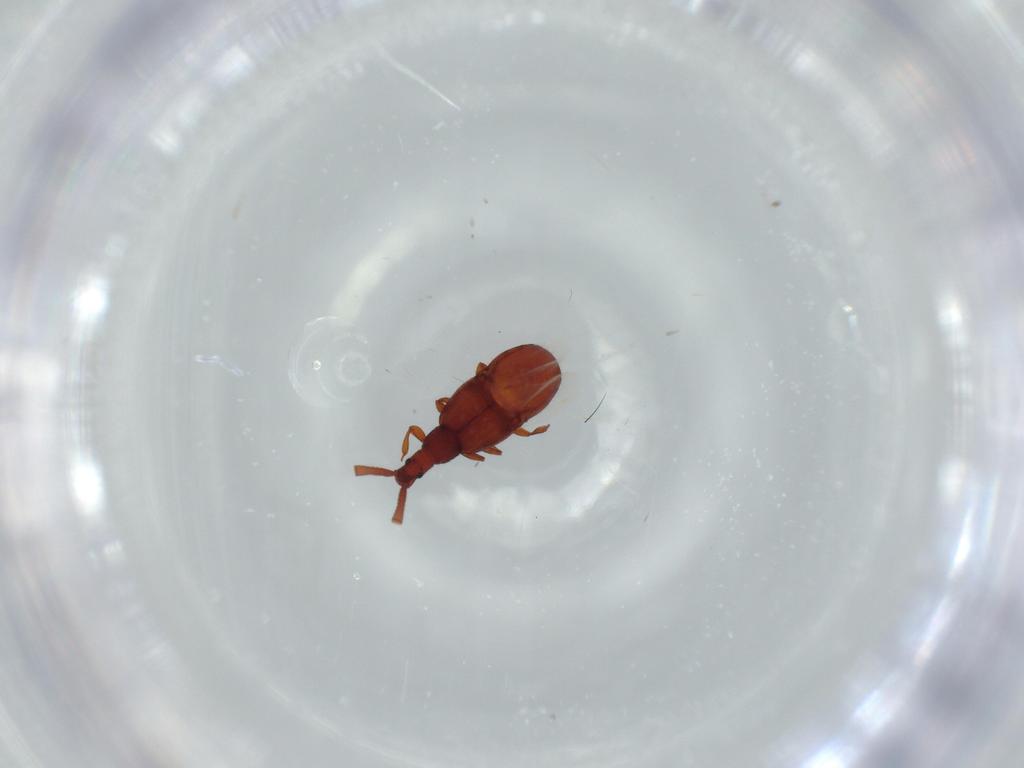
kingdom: Animalia
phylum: Arthropoda
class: Insecta
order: Coleoptera
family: Staphylinidae
